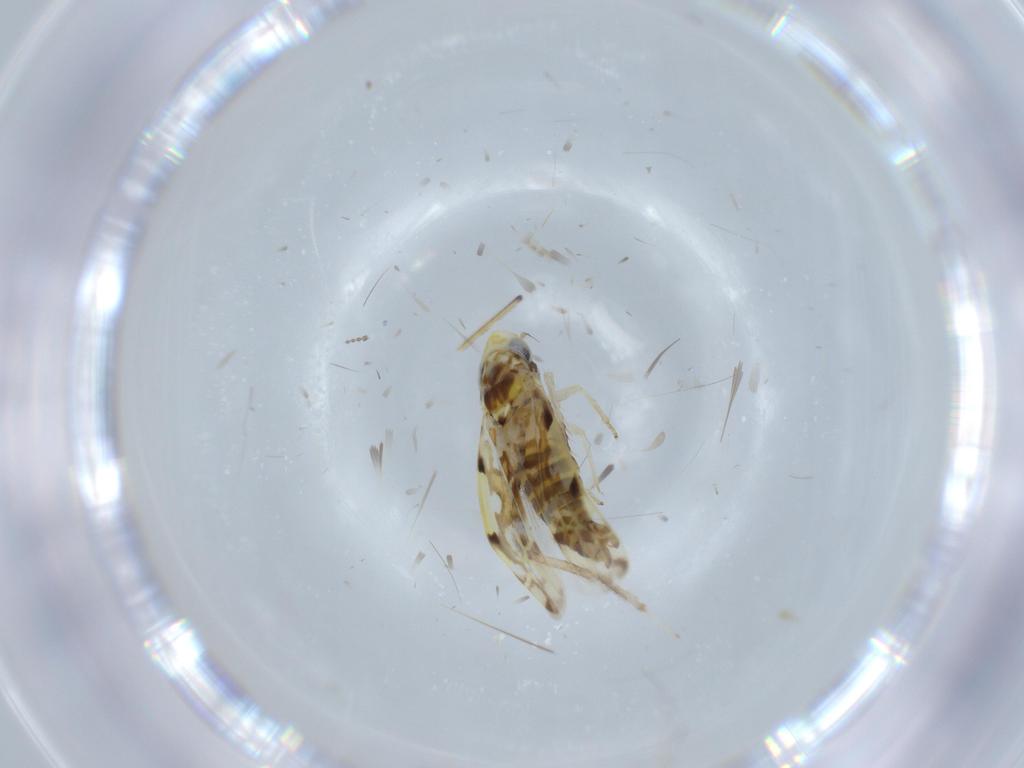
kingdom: Animalia
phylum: Arthropoda
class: Insecta
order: Hemiptera
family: Cicadellidae
